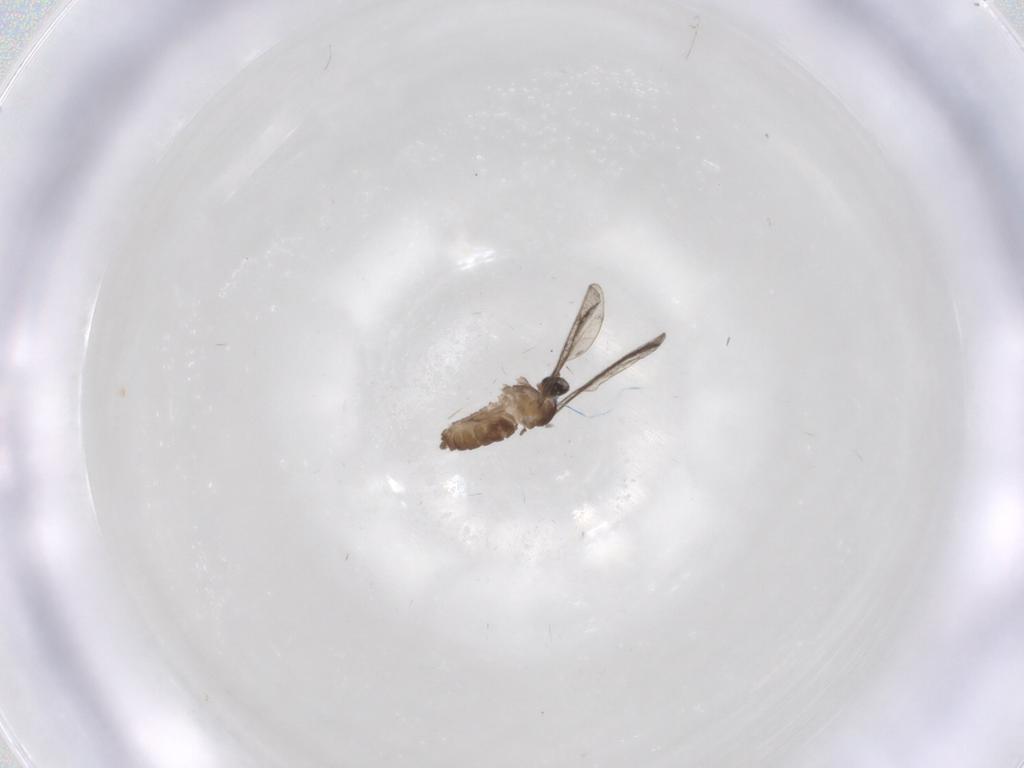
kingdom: Animalia
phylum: Arthropoda
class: Insecta
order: Diptera
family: Cecidomyiidae
